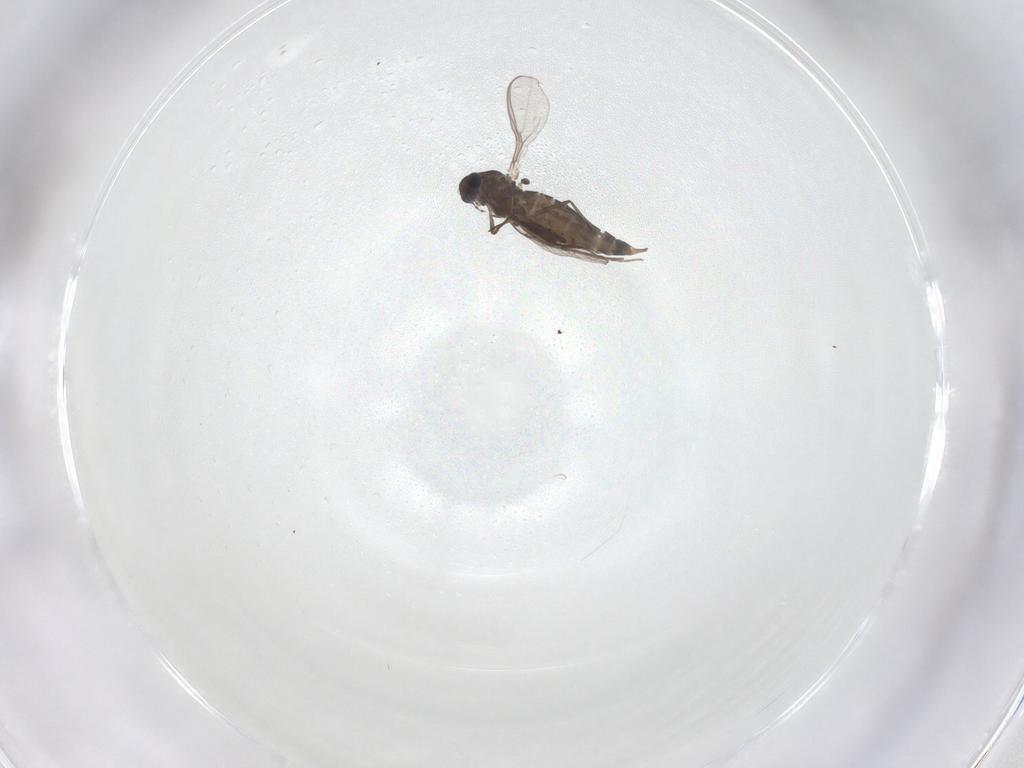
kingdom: Animalia
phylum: Arthropoda
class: Insecta
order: Diptera
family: Chironomidae
